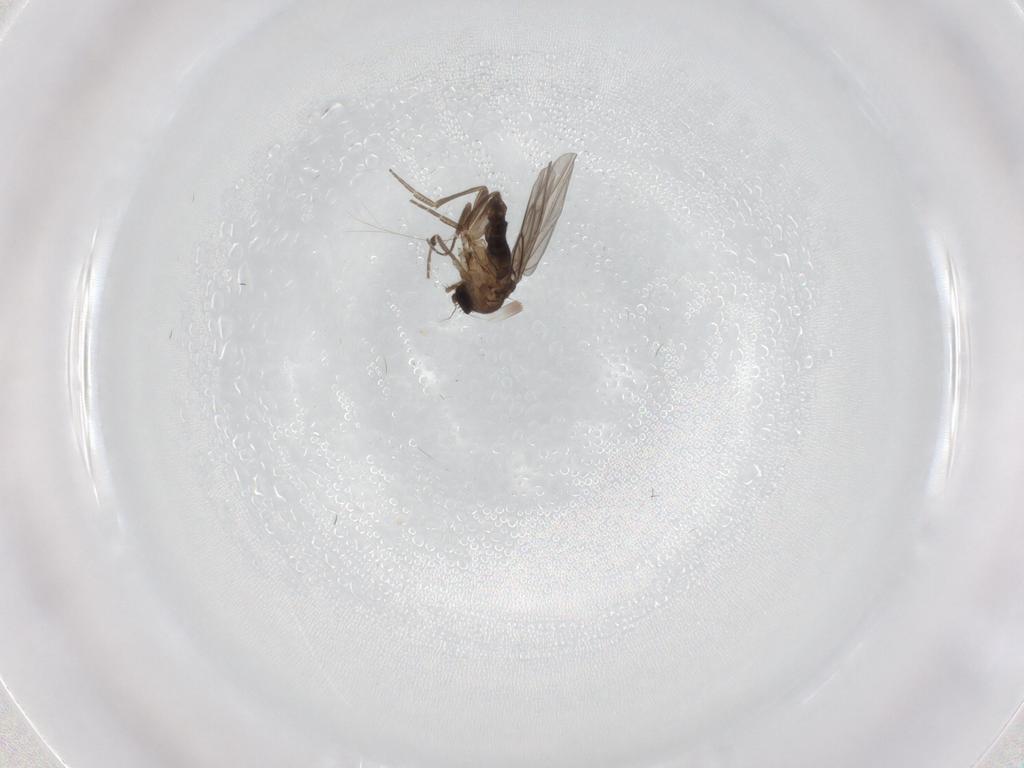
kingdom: Animalia
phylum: Arthropoda
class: Insecta
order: Diptera
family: Phoridae
